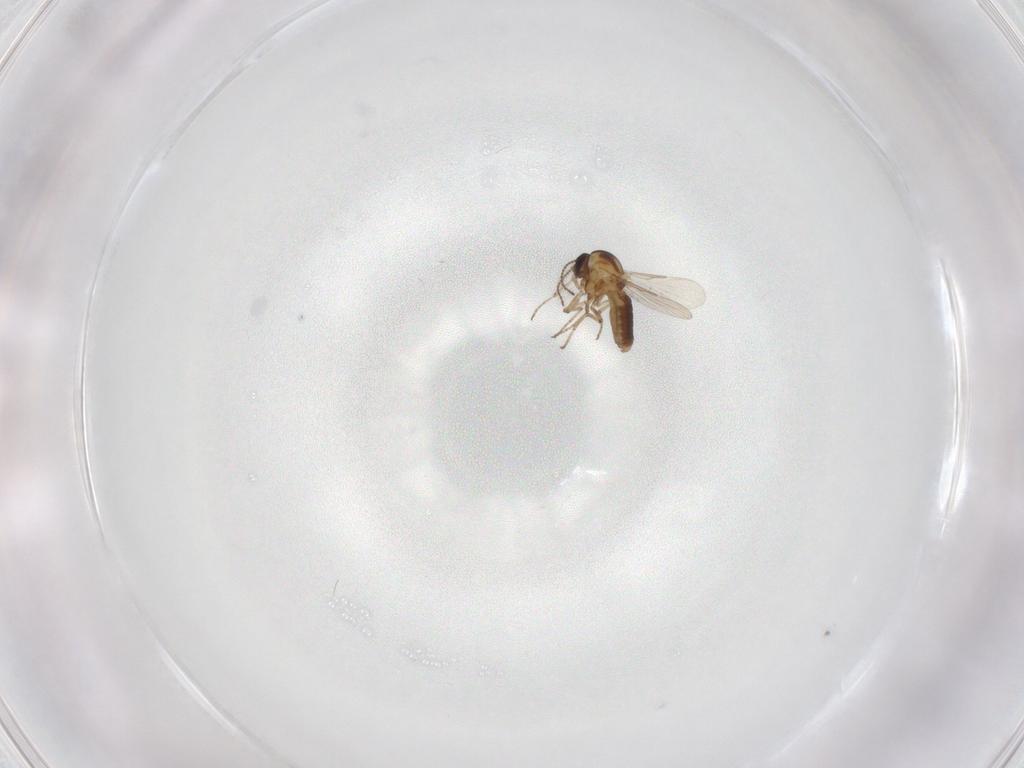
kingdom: Animalia
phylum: Arthropoda
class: Insecta
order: Diptera
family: Ceratopogonidae
